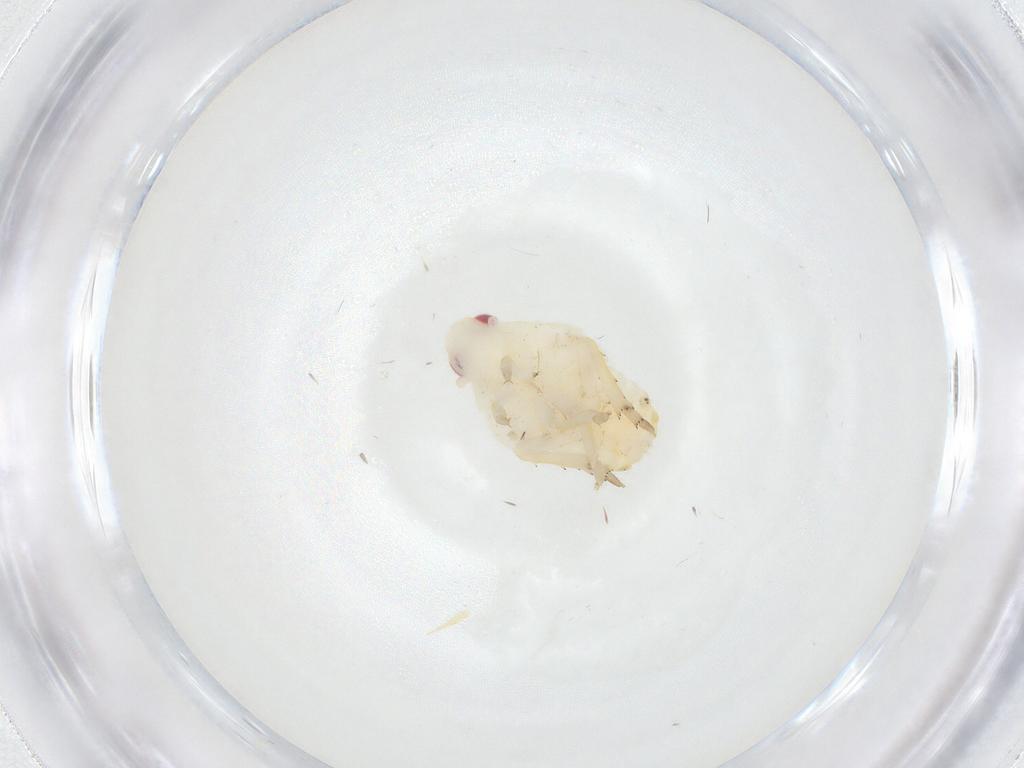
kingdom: Animalia
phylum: Arthropoda
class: Insecta
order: Hemiptera
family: Flatidae
